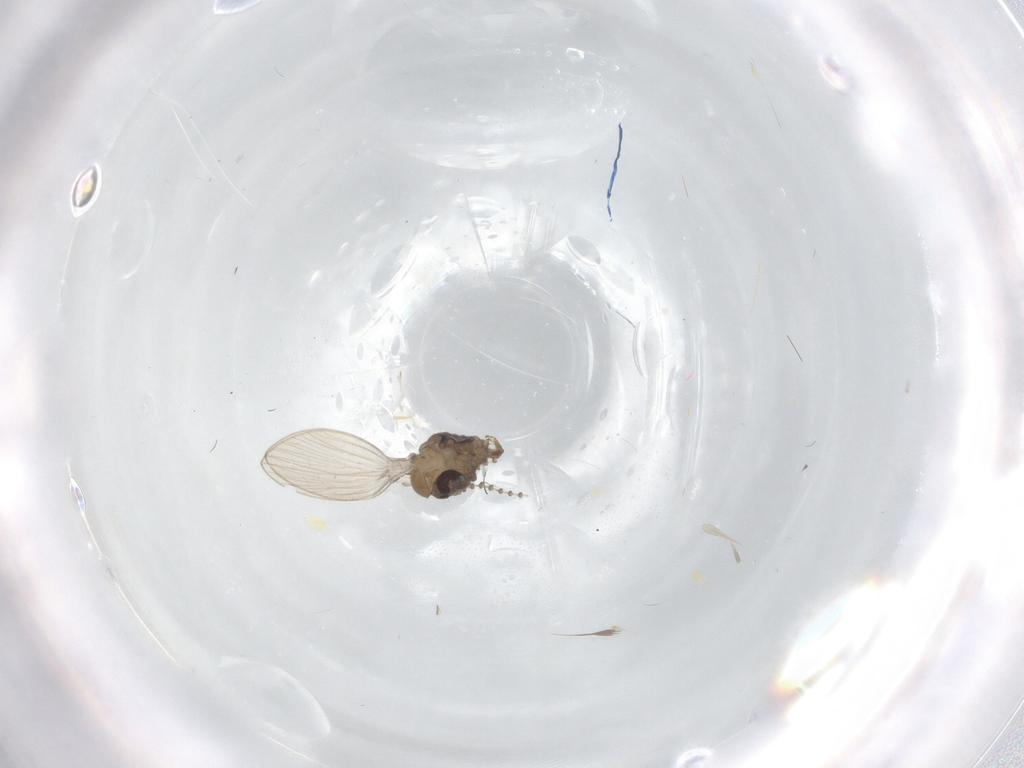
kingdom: Animalia
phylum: Arthropoda
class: Insecta
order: Diptera
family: Psychodidae
